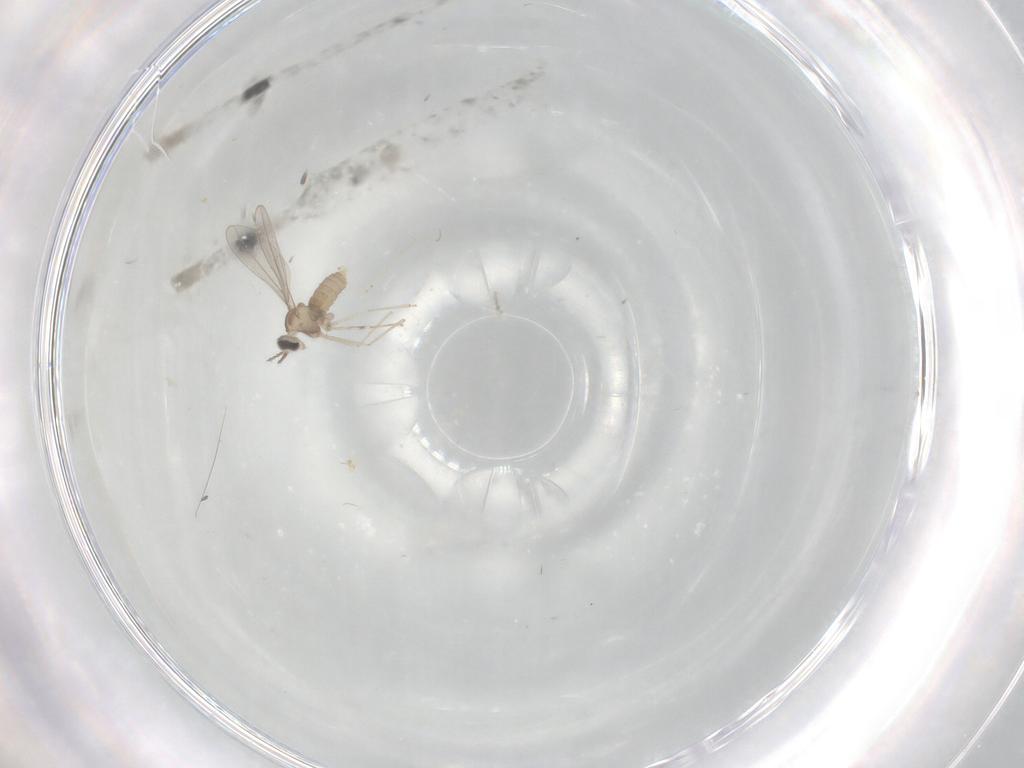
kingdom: Animalia
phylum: Arthropoda
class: Insecta
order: Diptera
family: Cecidomyiidae
